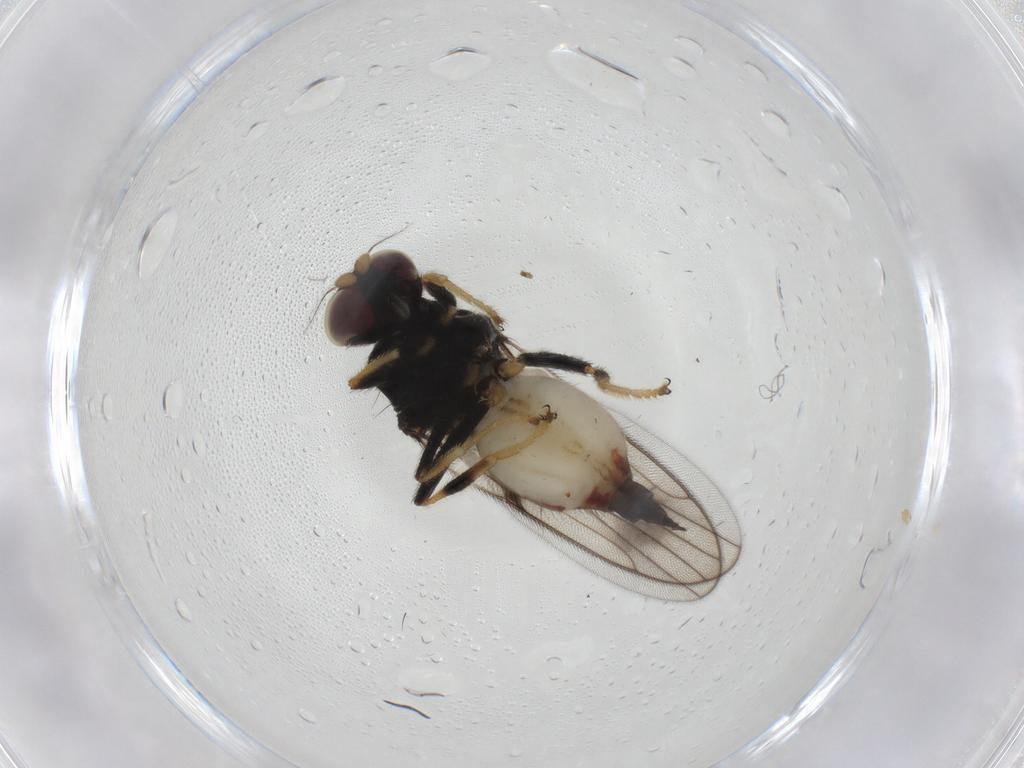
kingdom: Animalia
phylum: Arthropoda
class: Insecta
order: Diptera
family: Chloropidae
